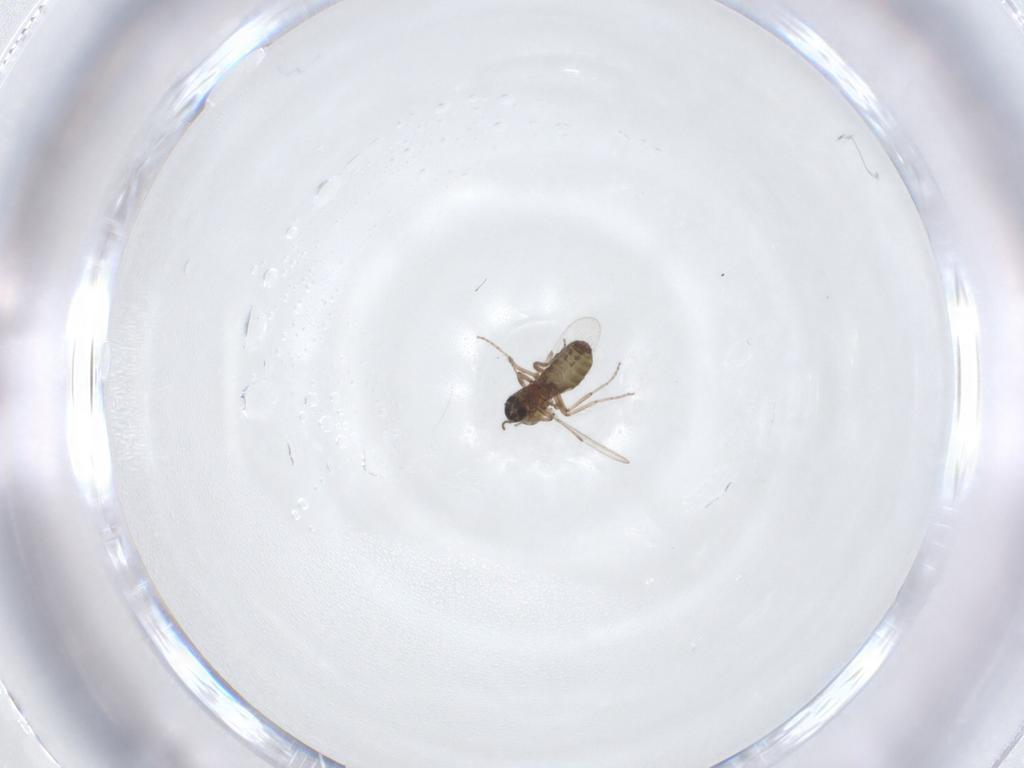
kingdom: Animalia
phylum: Arthropoda
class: Insecta
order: Diptera
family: Ceratopogonidae
